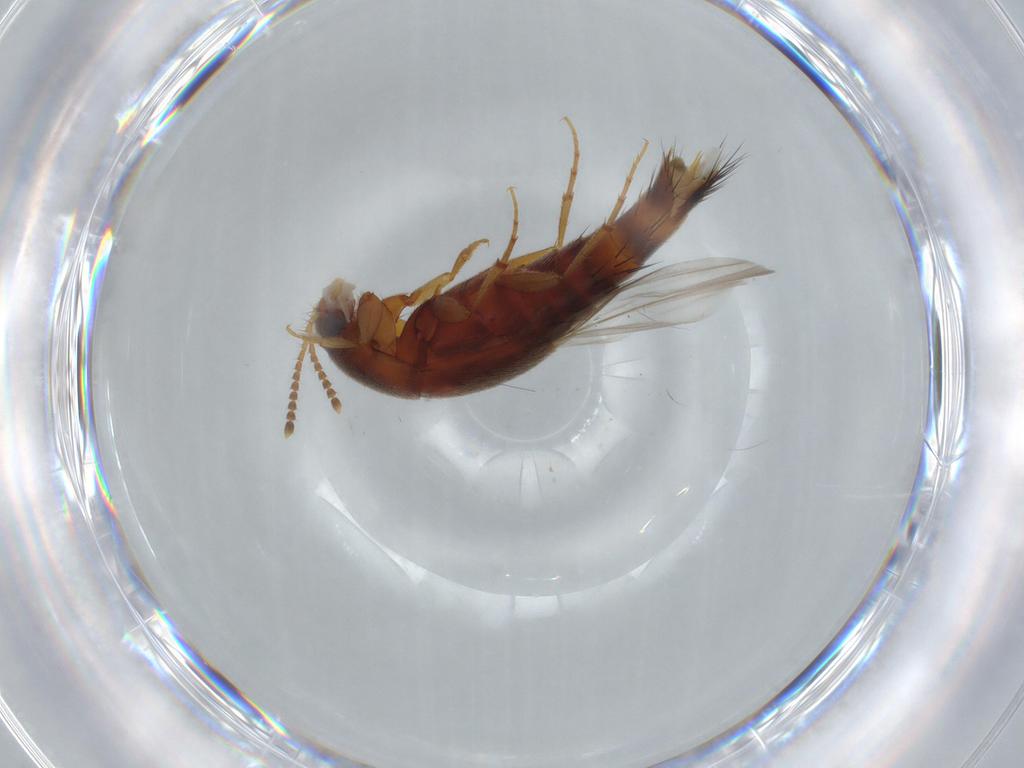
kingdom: Animalia
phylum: Arthropoda
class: Insecta
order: Coleoptera
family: Staphylinidae
